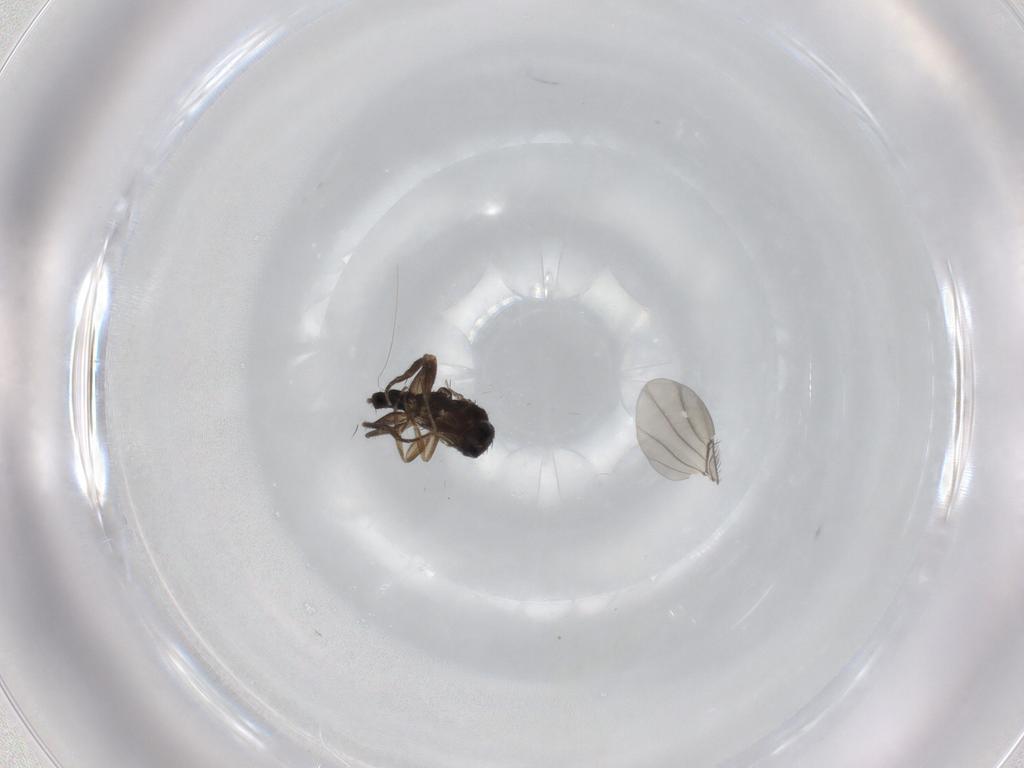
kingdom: Animalia
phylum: Arthropoda
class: Insecta
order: Diptera
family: Phoridae
